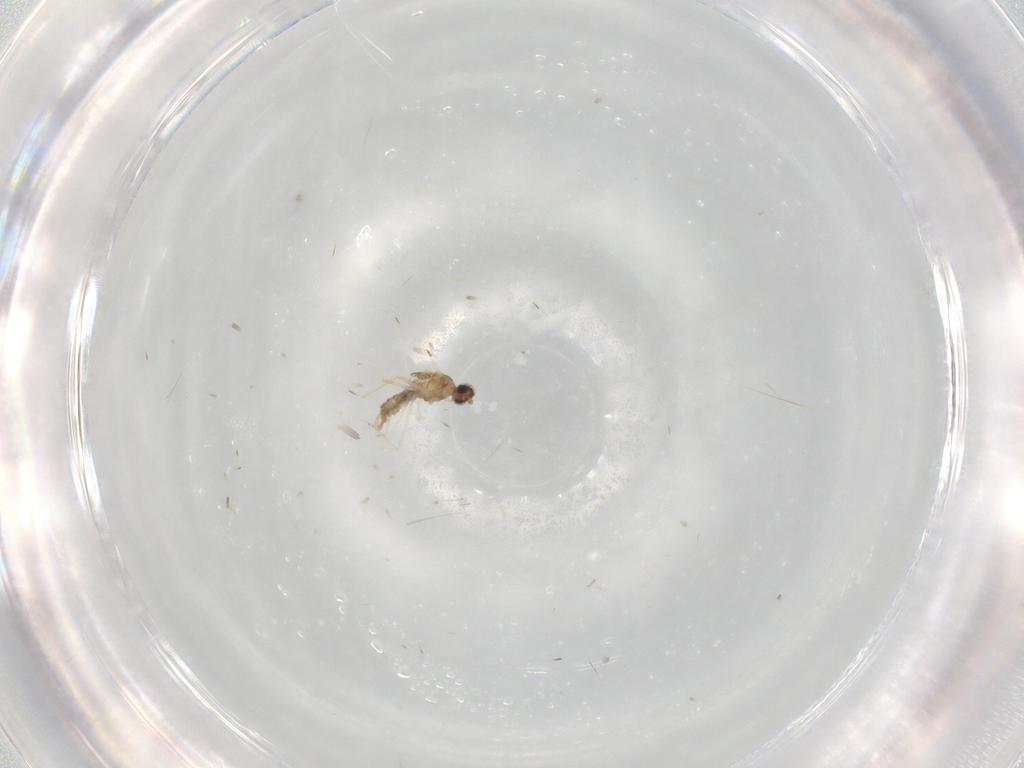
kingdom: Animalia
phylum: Arthropoda
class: Insecta
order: Diptera
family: Cecidomyiidae
